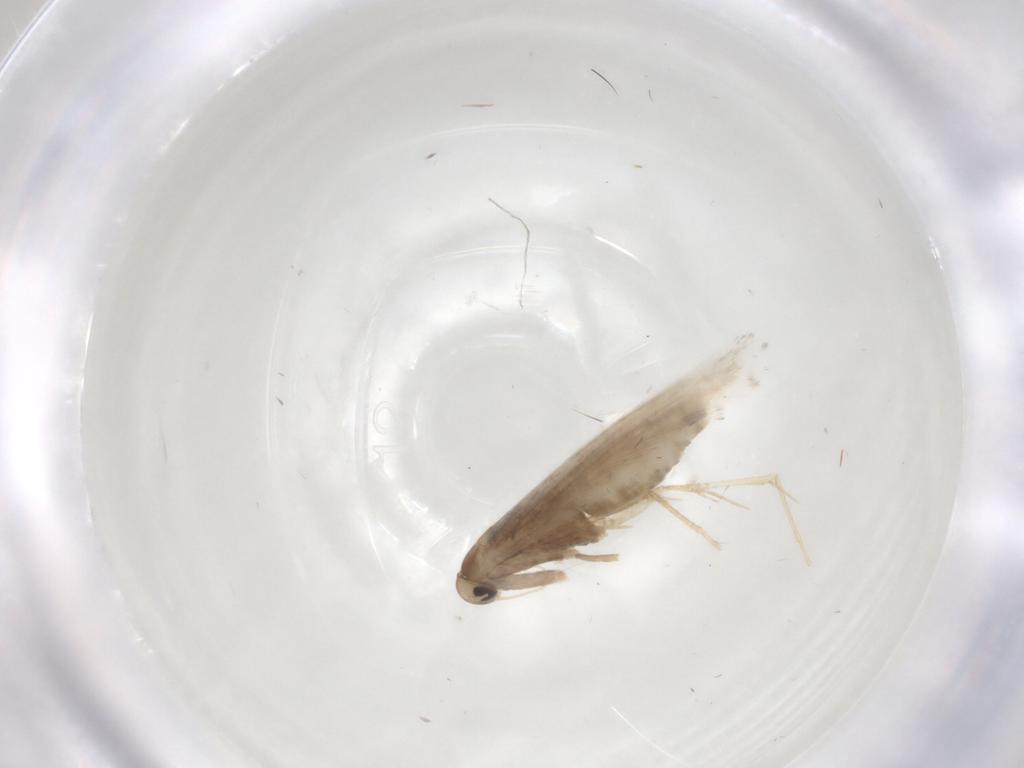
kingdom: Animalia
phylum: Arthropoda
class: Insecta
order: Lepidoptera
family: Gracillariidae
